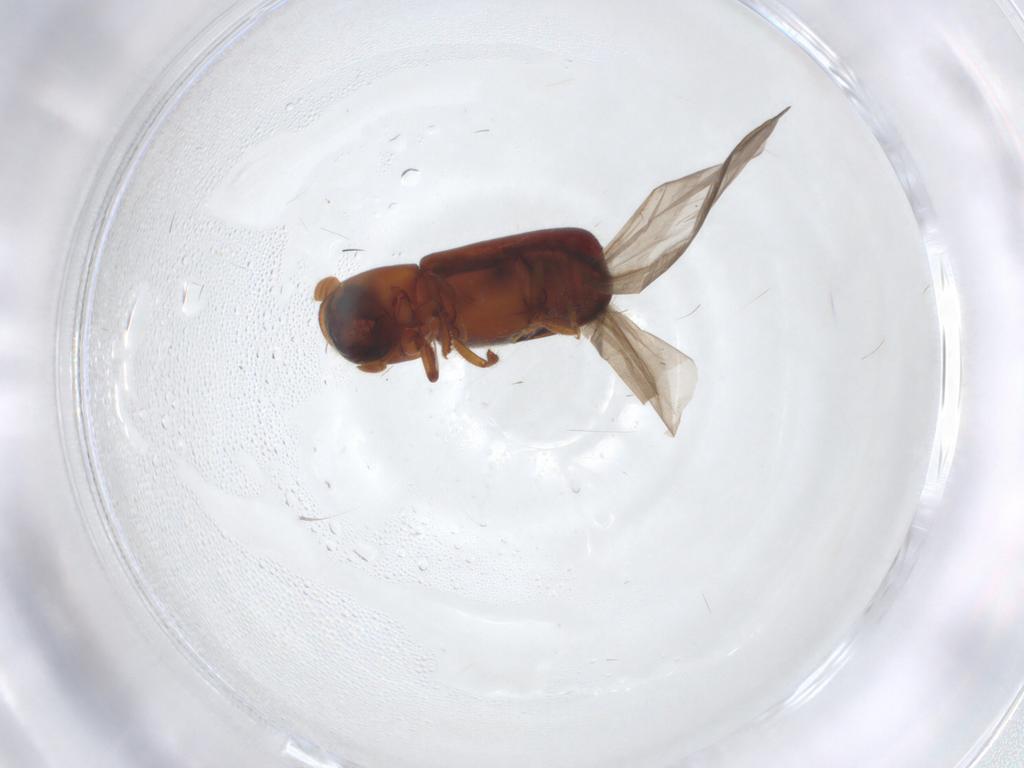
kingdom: Animalia
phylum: Arthropoda
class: Insecta
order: Coleoptera
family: Curculionidae
